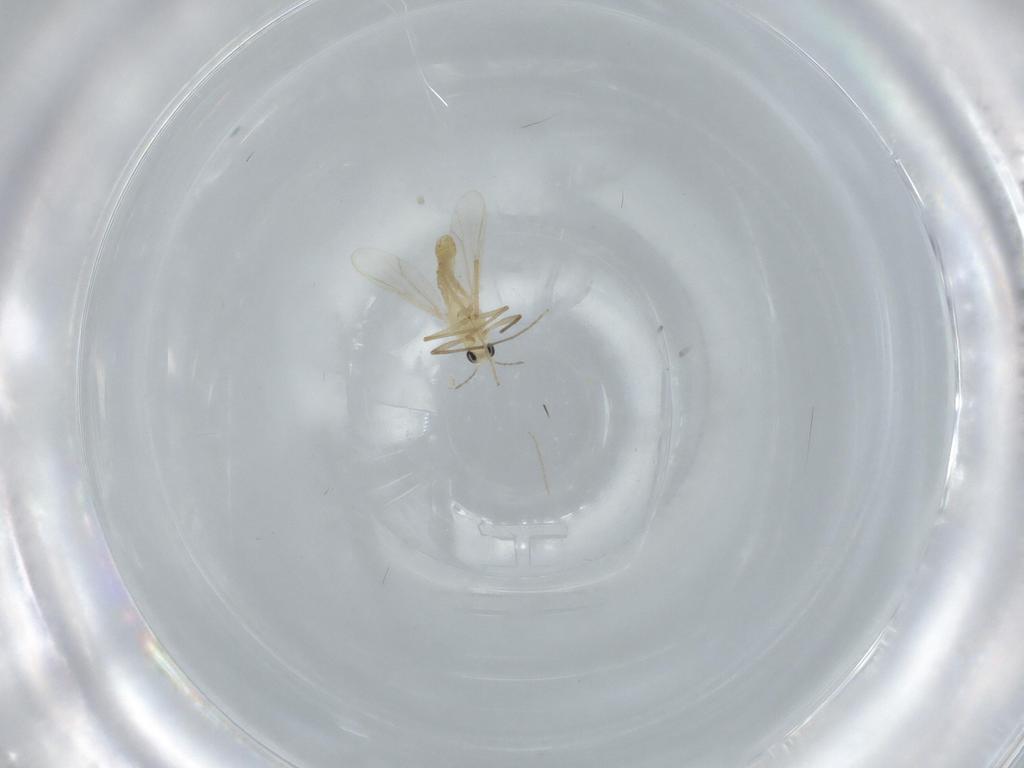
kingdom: Animalia
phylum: Arthropoda
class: Insecta
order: Diptera
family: Chironomidae
